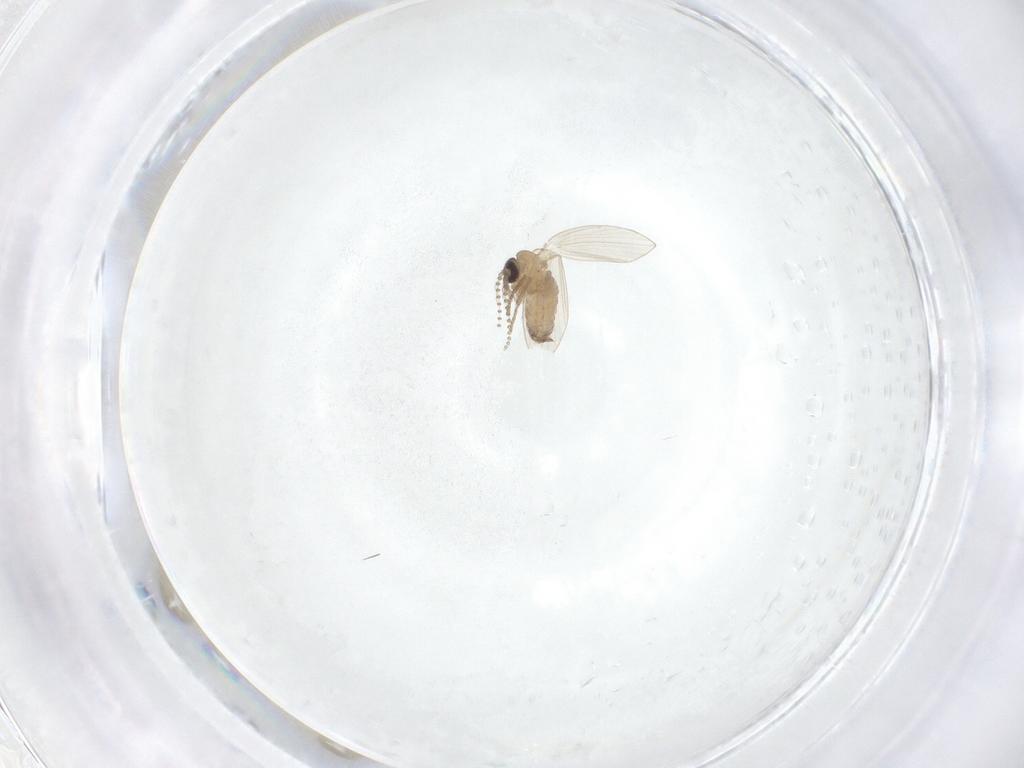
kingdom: Animalia
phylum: Arthropoda
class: Insecta
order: Diptera
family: Psychodidae
